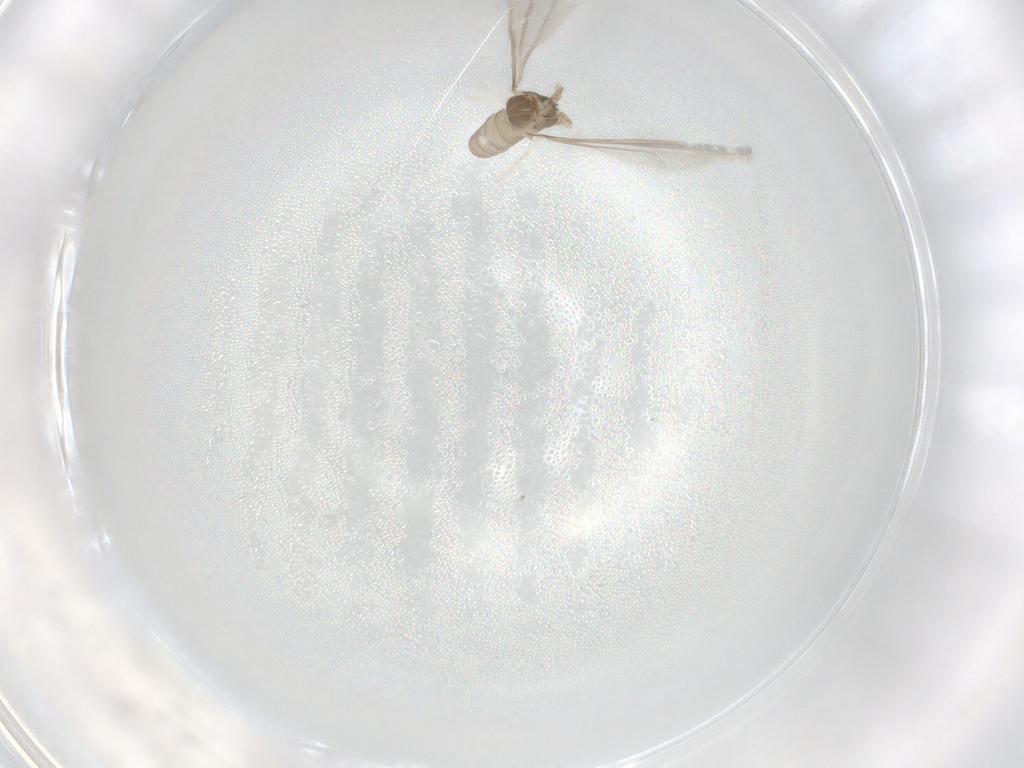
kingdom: Animalia
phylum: Arthropoda
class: Insecta
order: Diptera
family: Cecidomyiidae
